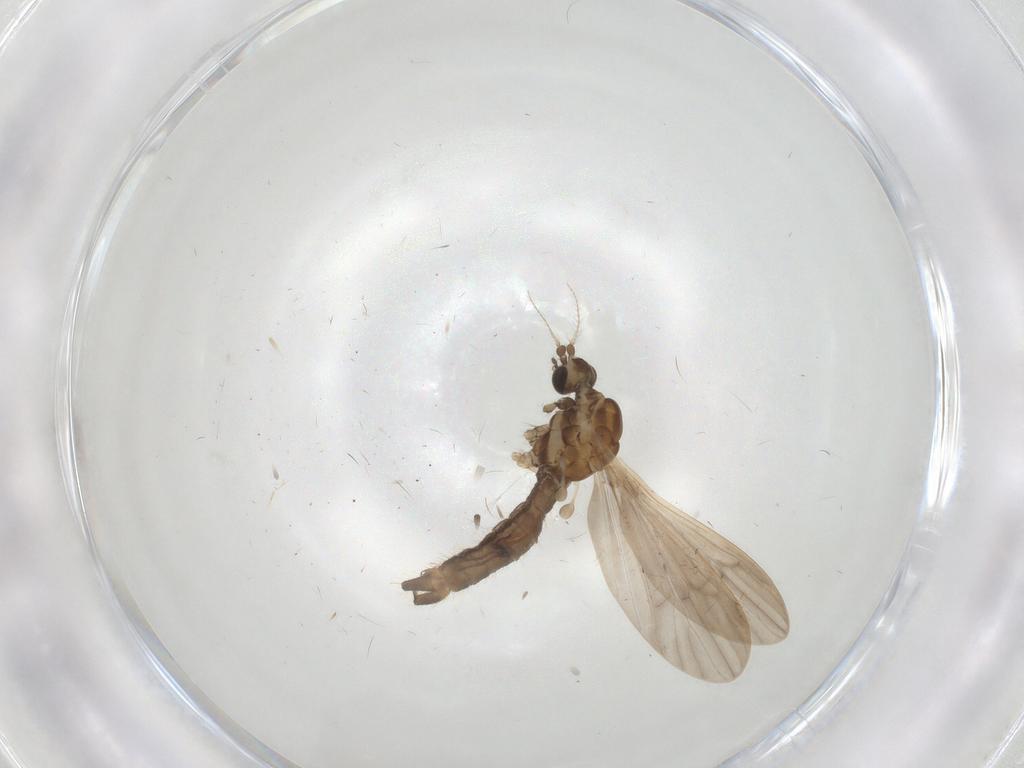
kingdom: Animalia
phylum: Arthropoda
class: Insecta
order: Diptera
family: Limoniidae
